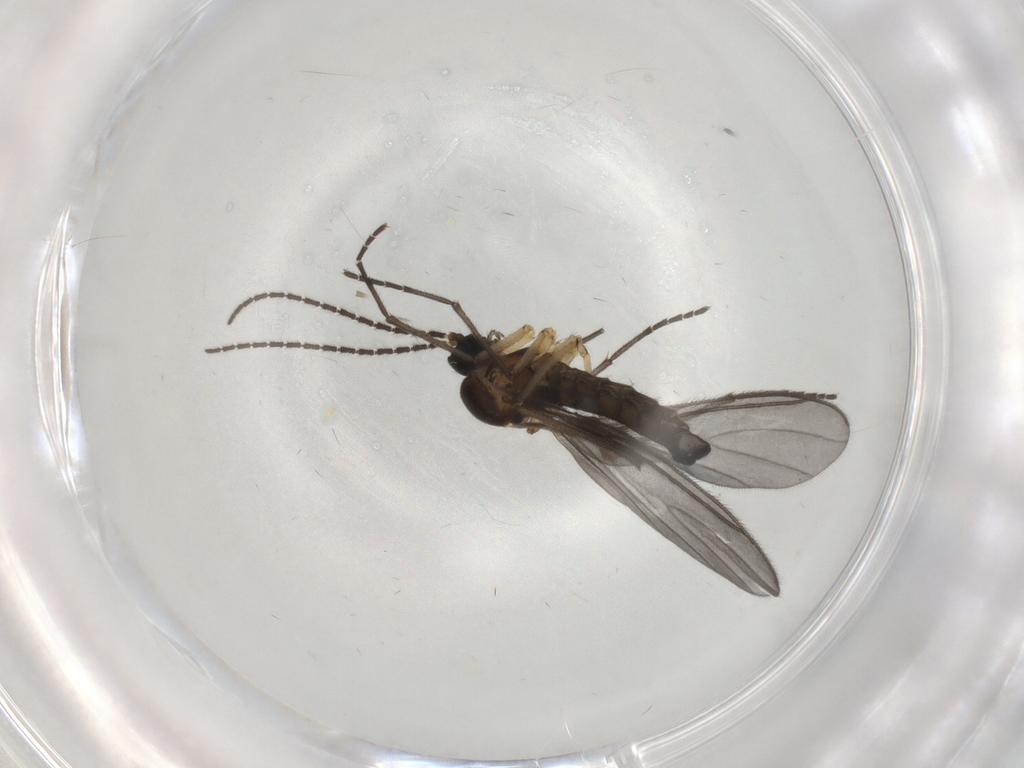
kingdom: Animalia
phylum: Arthropoda
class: Insecta
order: Diptera
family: Sciaridae
